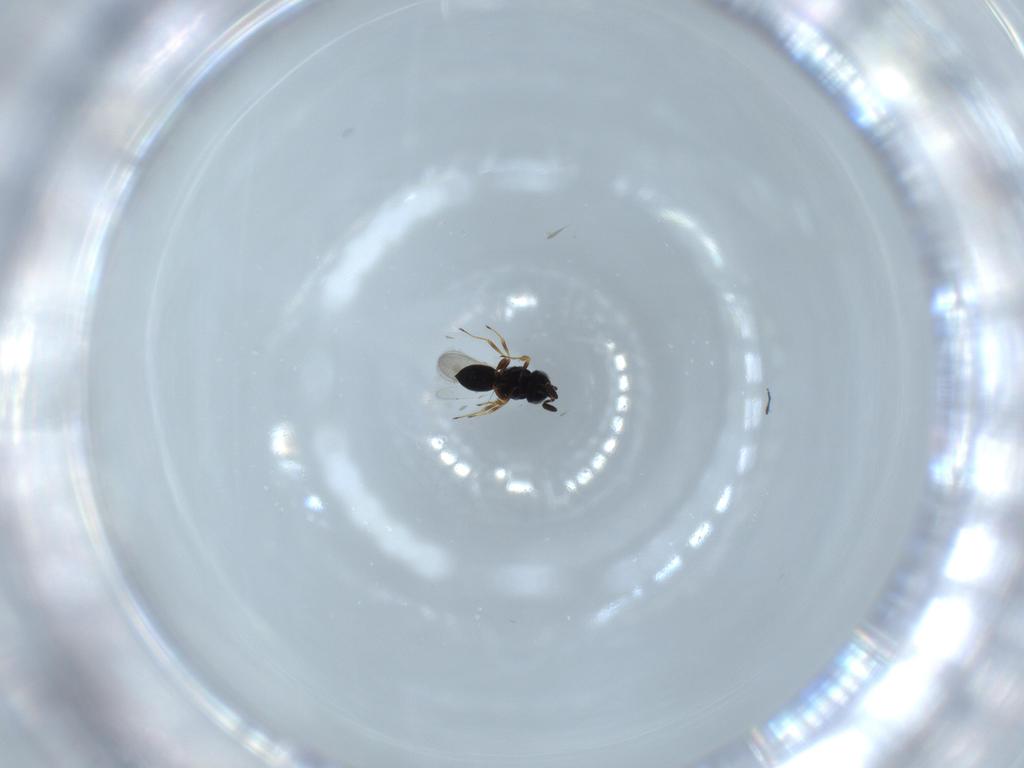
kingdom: Animalia
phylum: Arthropoda
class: Insecta
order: Hymenoptera
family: Scelionidae
